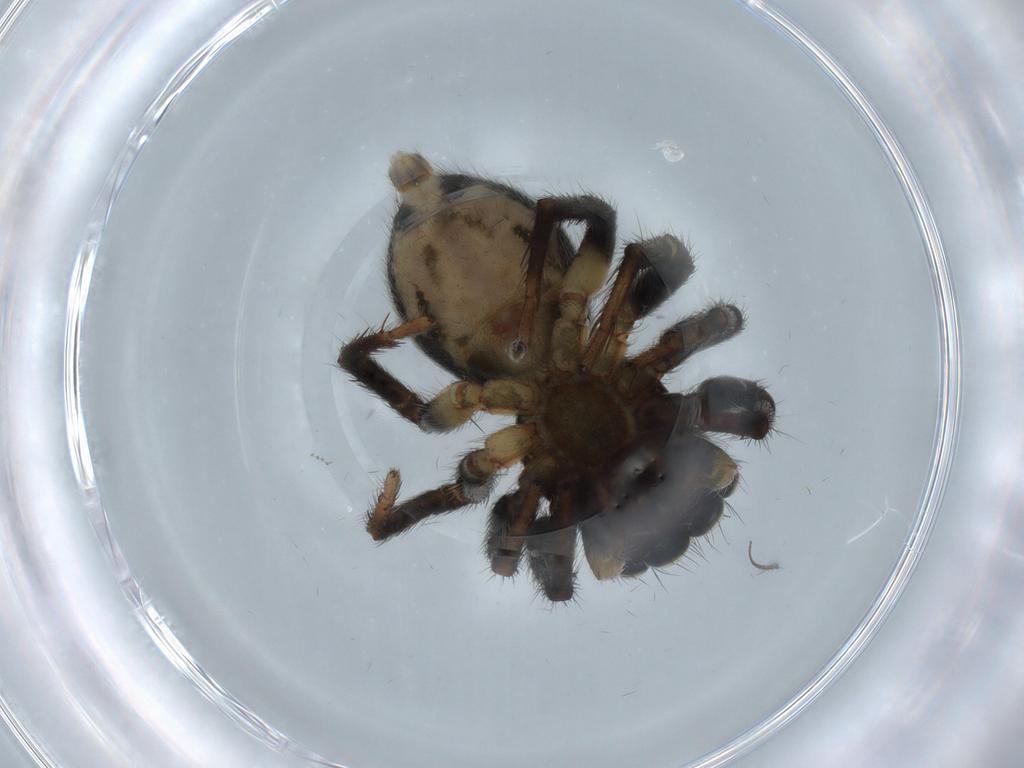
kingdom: Animalia
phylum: Arthropoda
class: Arachnida
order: Araneae
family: Salticidae
